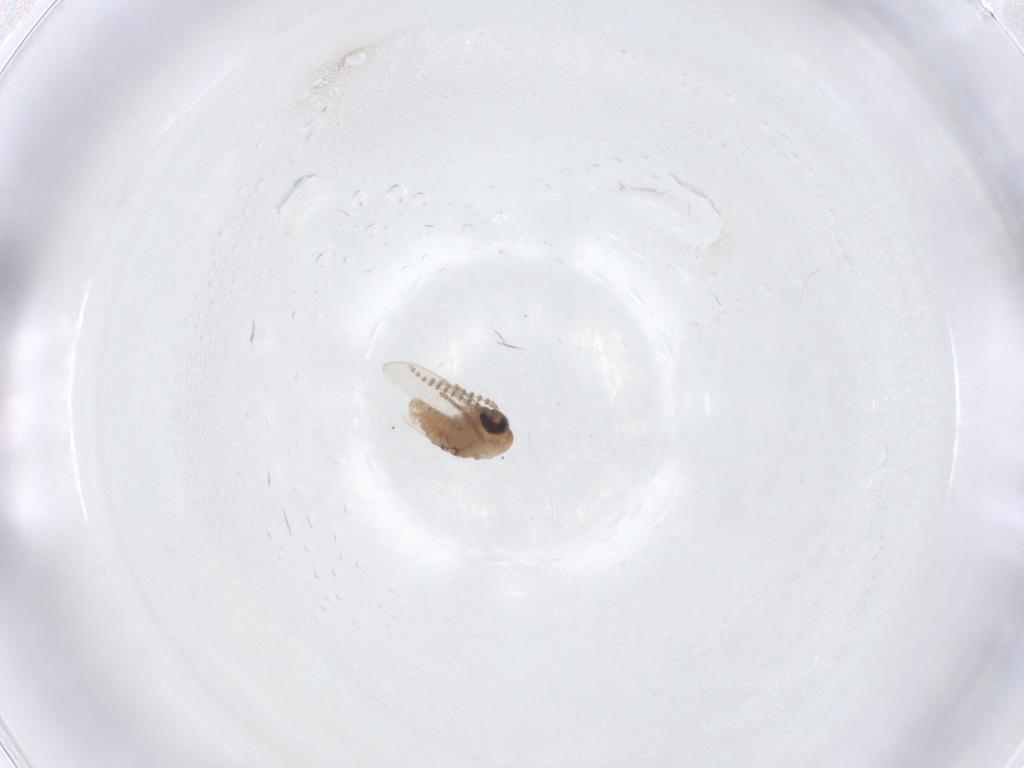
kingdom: Animalia
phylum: Arthropoda
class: Insecta
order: Diptera
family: Psychodidae
